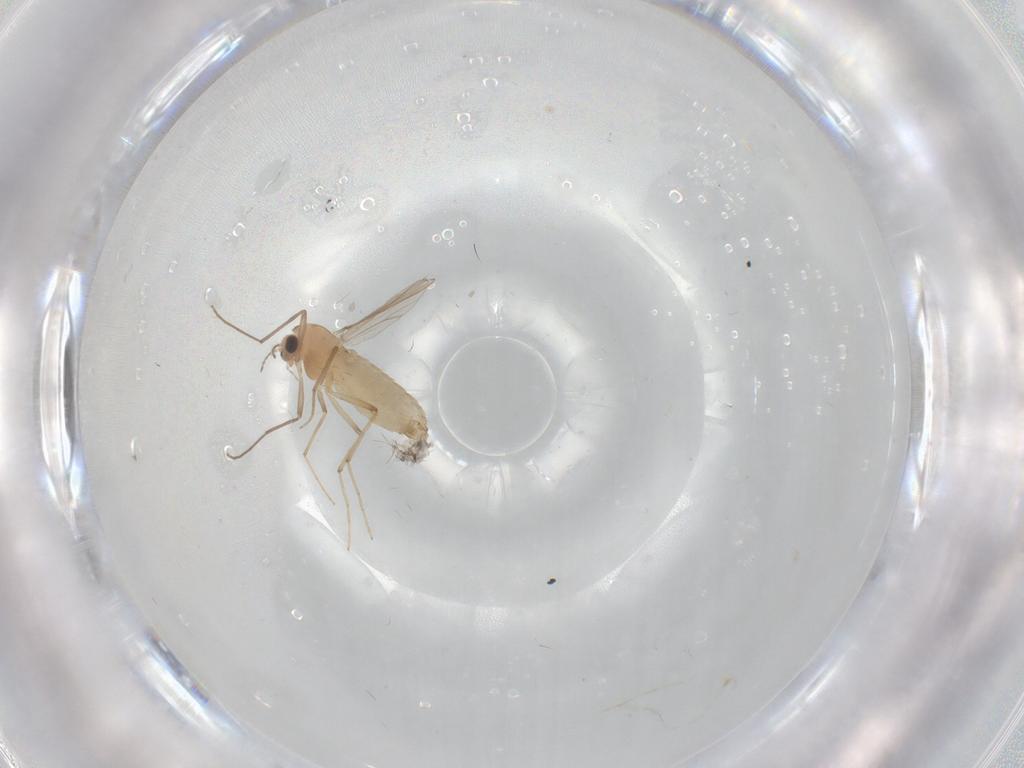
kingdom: Animalia
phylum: Arthropoda
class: Insecta
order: Diptera
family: Chironomidae
